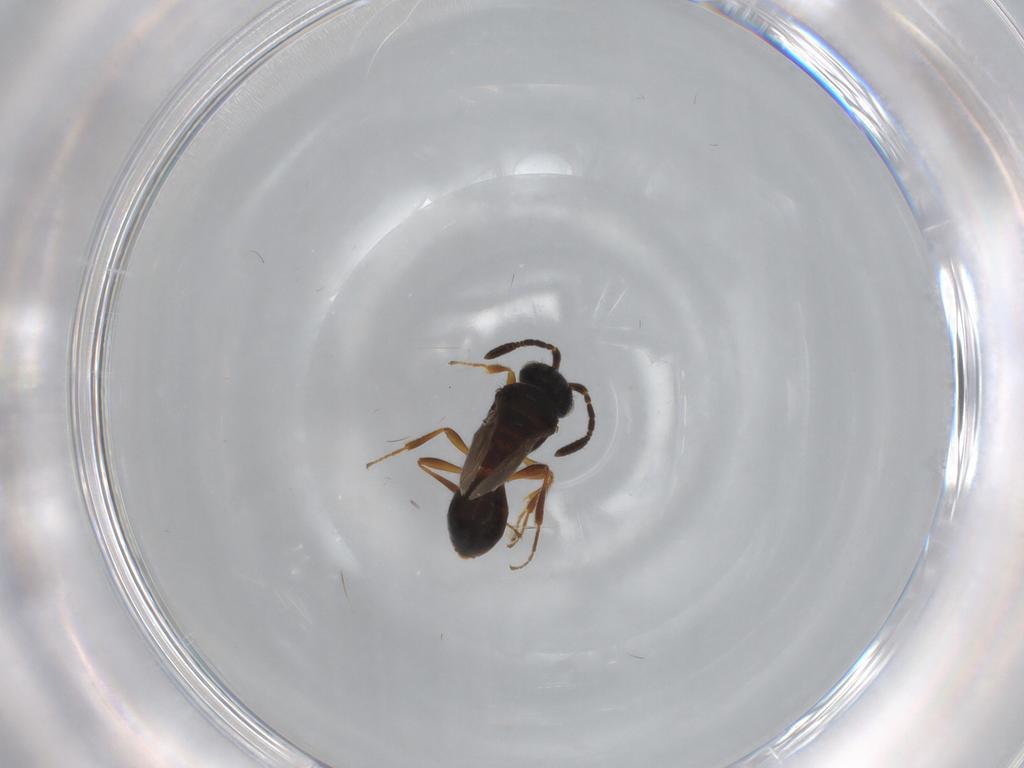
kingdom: Animalia
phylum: Arthropoda
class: Insecta
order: Hymenoptera
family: Scelionidae
